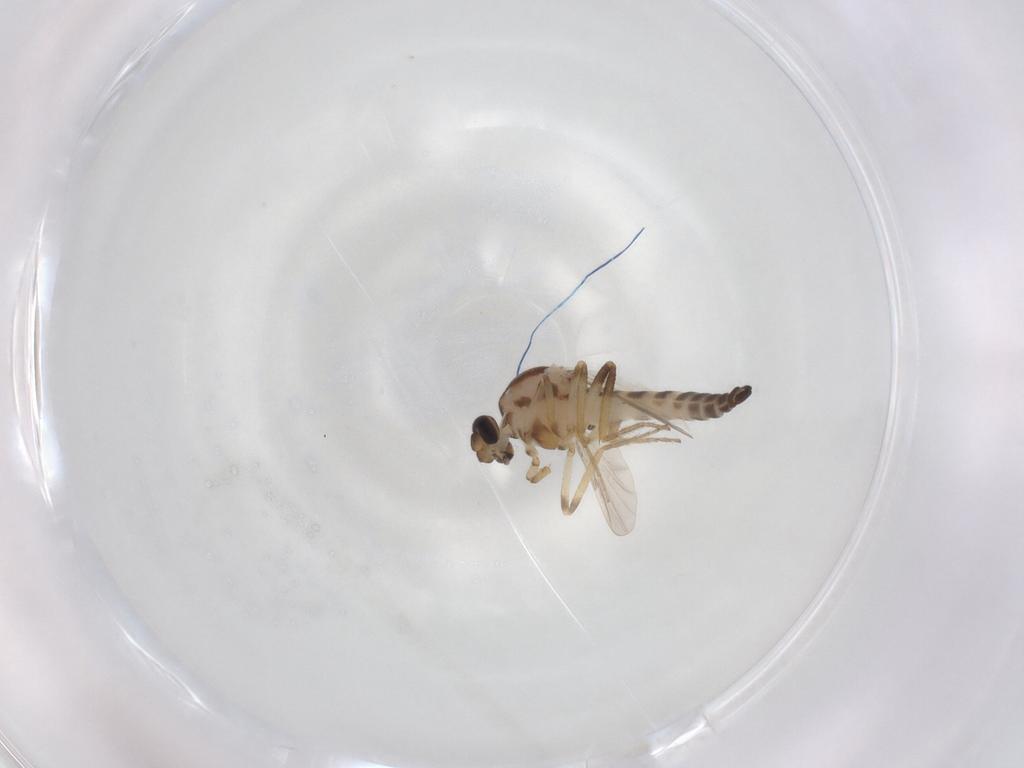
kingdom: Animalia
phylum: Arthropoda
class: Insecta
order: Diptera
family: Ceratopogonidae
